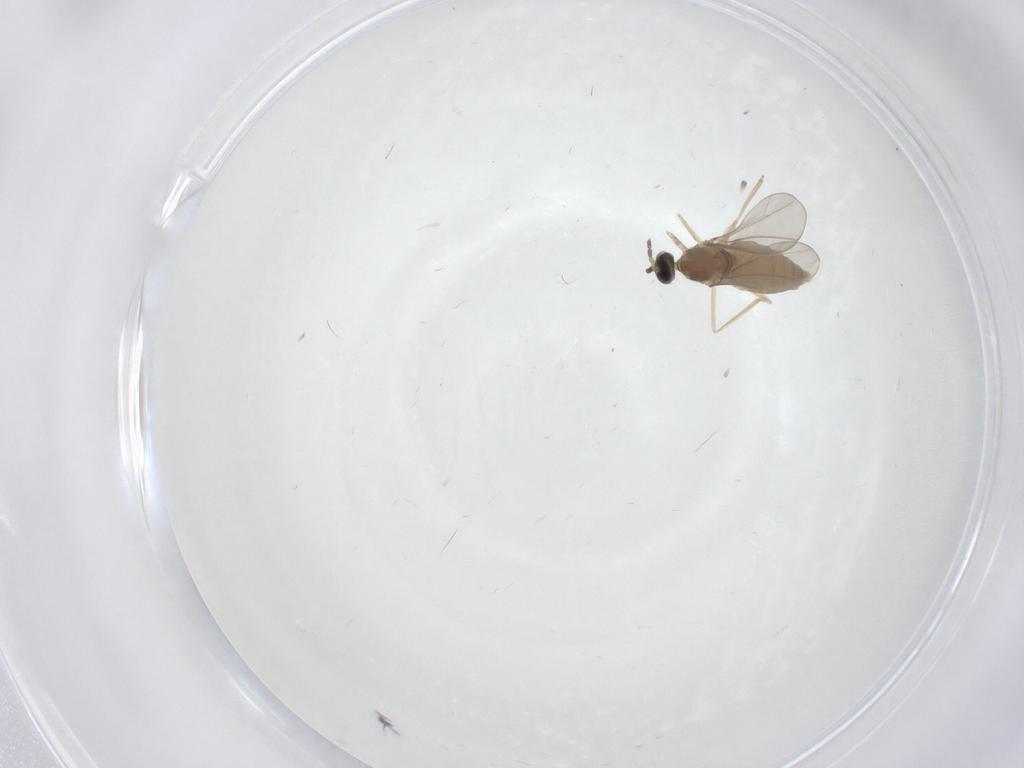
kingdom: Animalia
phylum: Arthropoda
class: Insecta
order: Diptera
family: Cecidomyiidae
